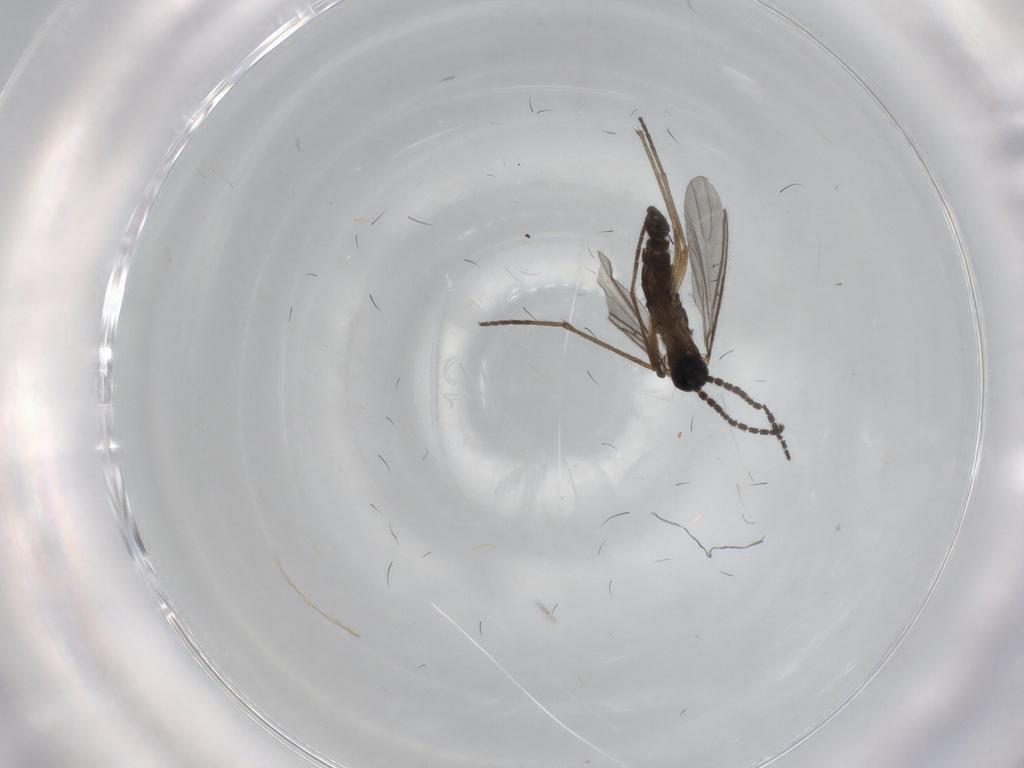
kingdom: Animalia
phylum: Arthropoda
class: Insecta
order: Diptera
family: Sciaridae
